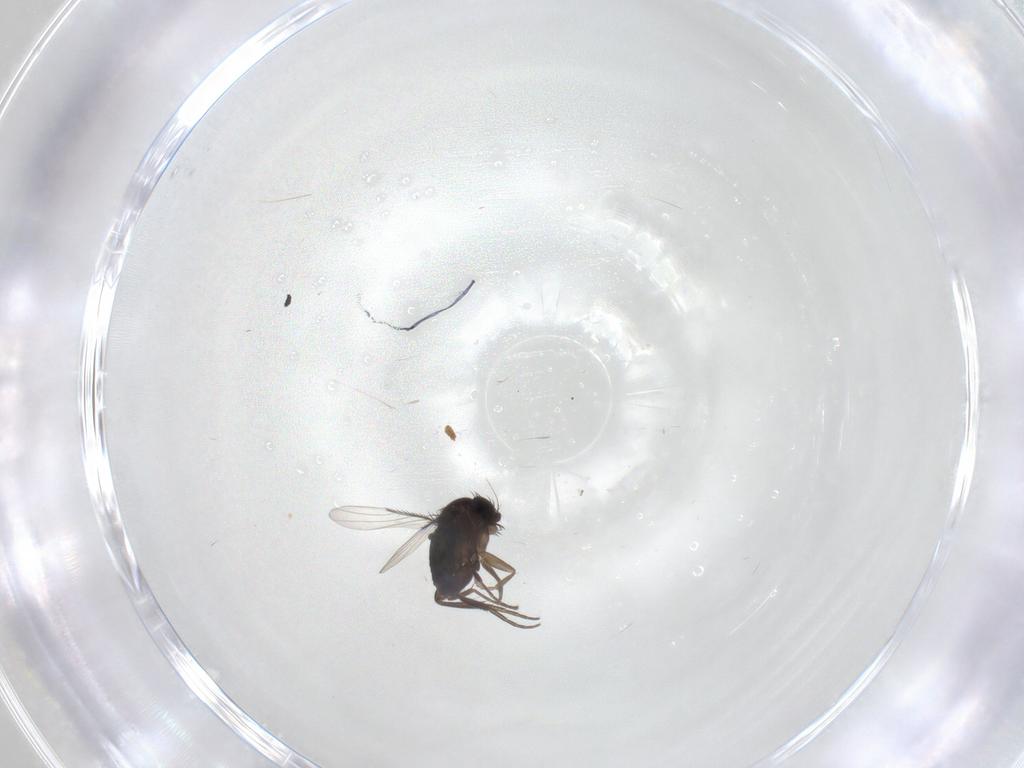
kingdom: Animalia
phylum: Arthropoda
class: Insecta
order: Diptera
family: Phoridae
